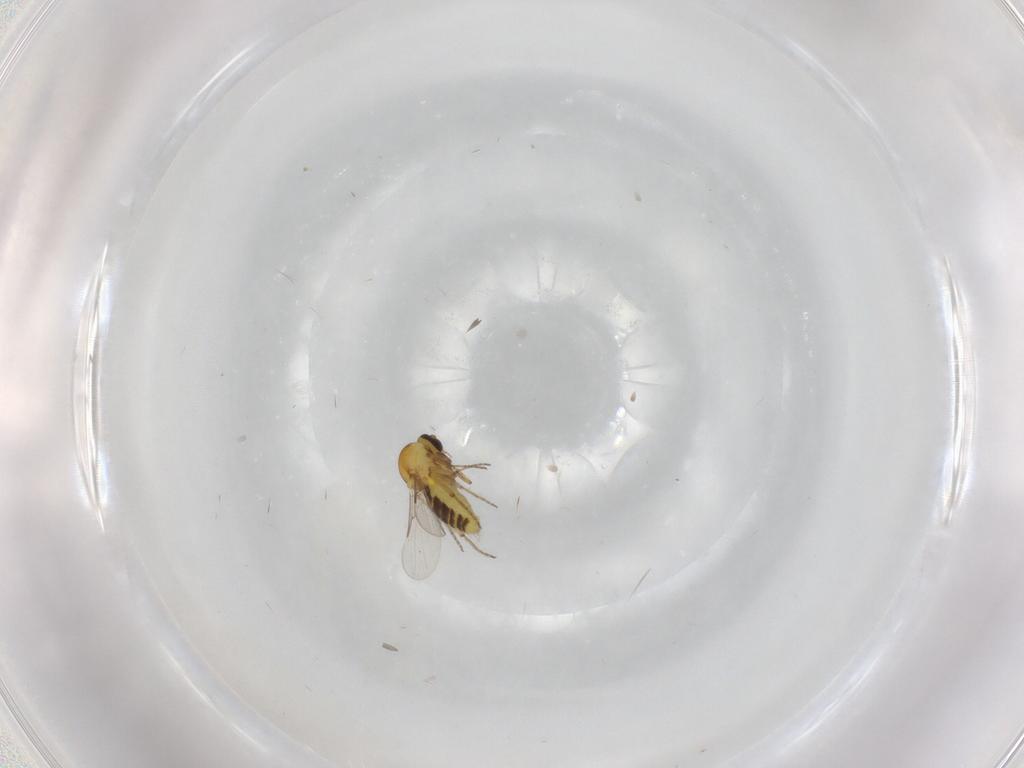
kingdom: Animalia
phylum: Arthropoda
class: Insecta
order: Diptera
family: Ceratopogonidae
